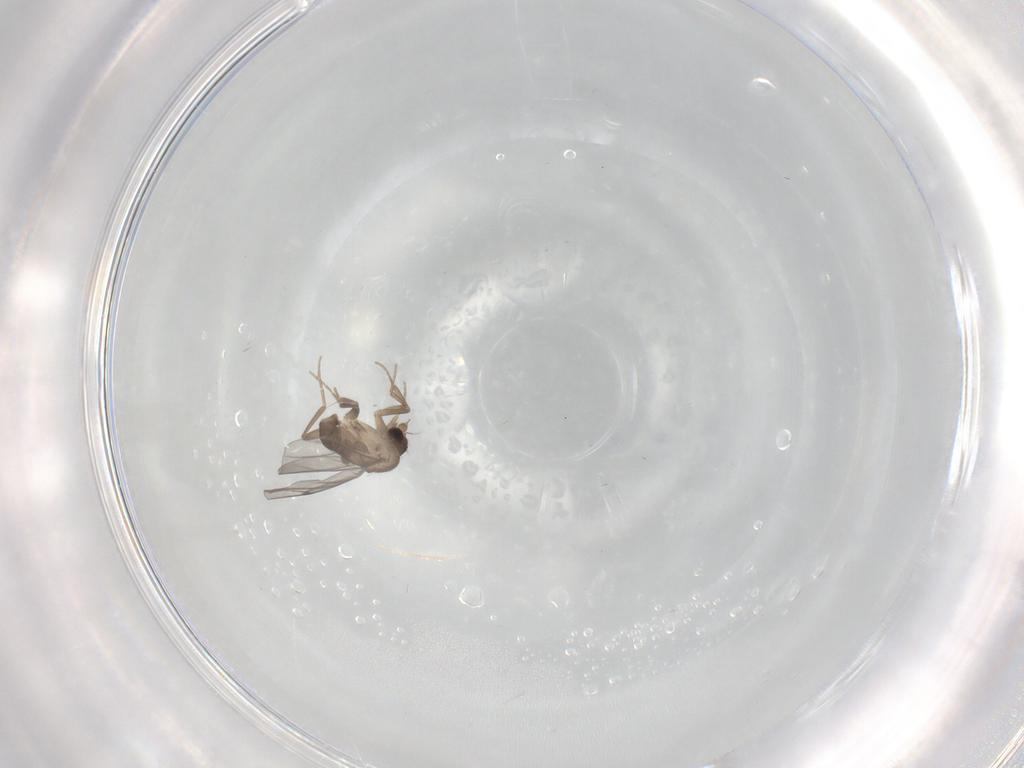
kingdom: Animalia
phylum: Arthropoda
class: Insecta
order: Diptera
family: Chironomidae
